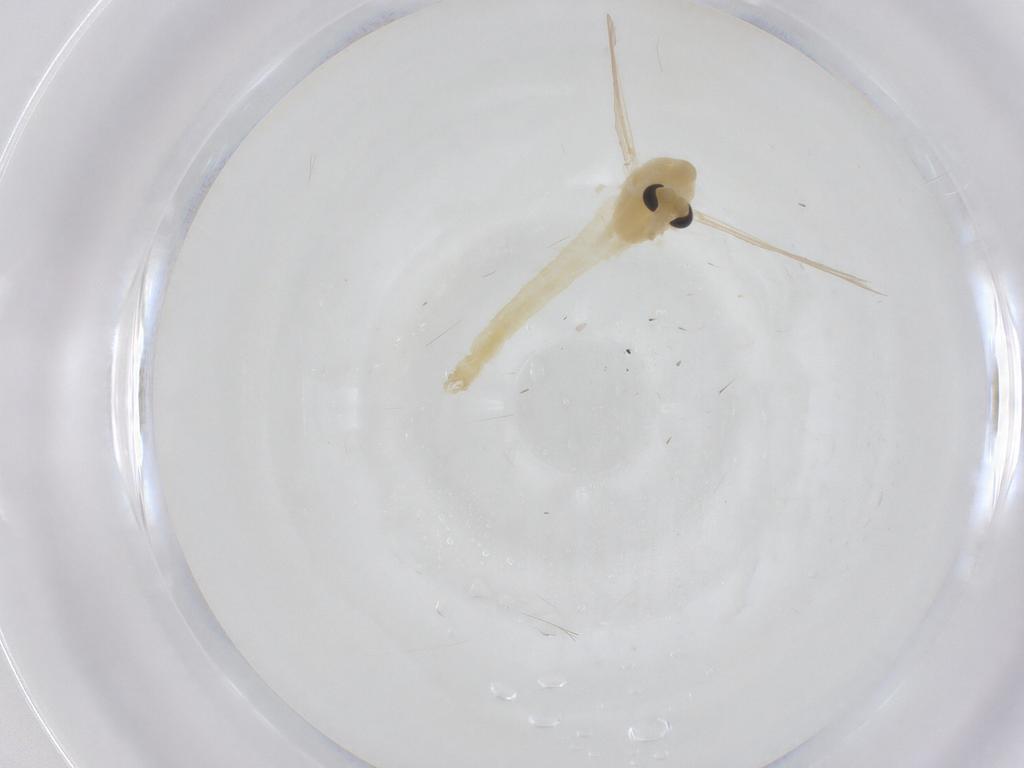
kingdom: Animalia
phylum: Arthropoda
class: Insecta
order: Diptera
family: Chironomidae
